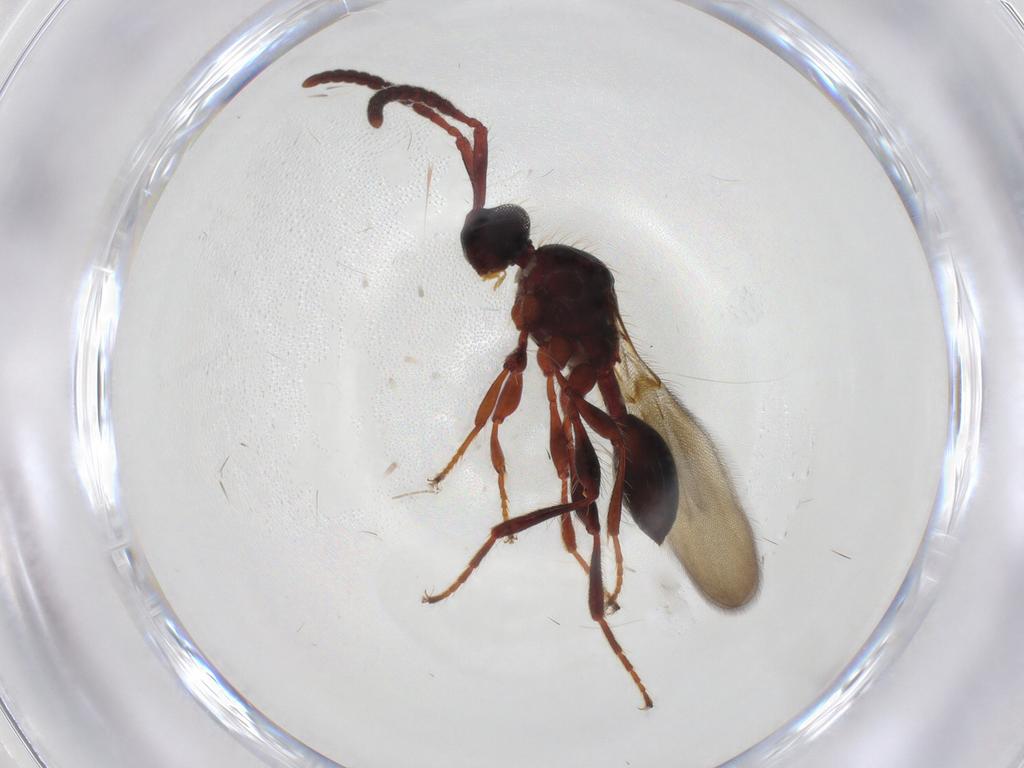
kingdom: Animalia
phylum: Arthropoda
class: Insecta
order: Hymenoptera
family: Diapriidae
